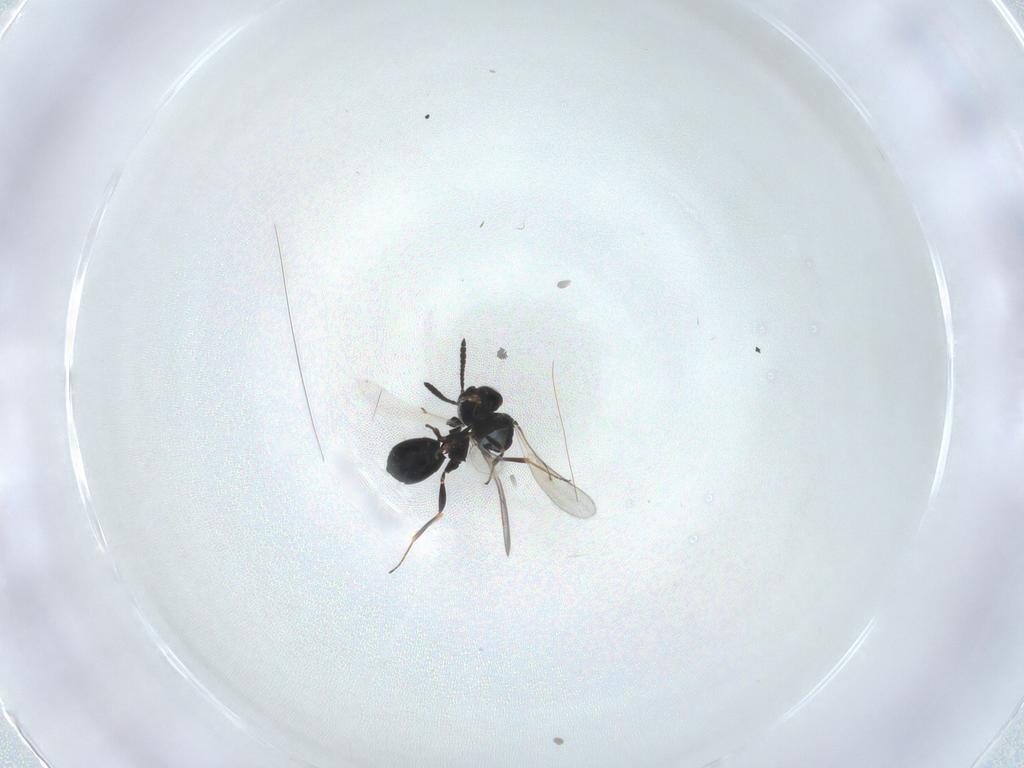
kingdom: Animalia
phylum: Arthropoda
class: Insecta
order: Hymenoptera
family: Scelionidae
